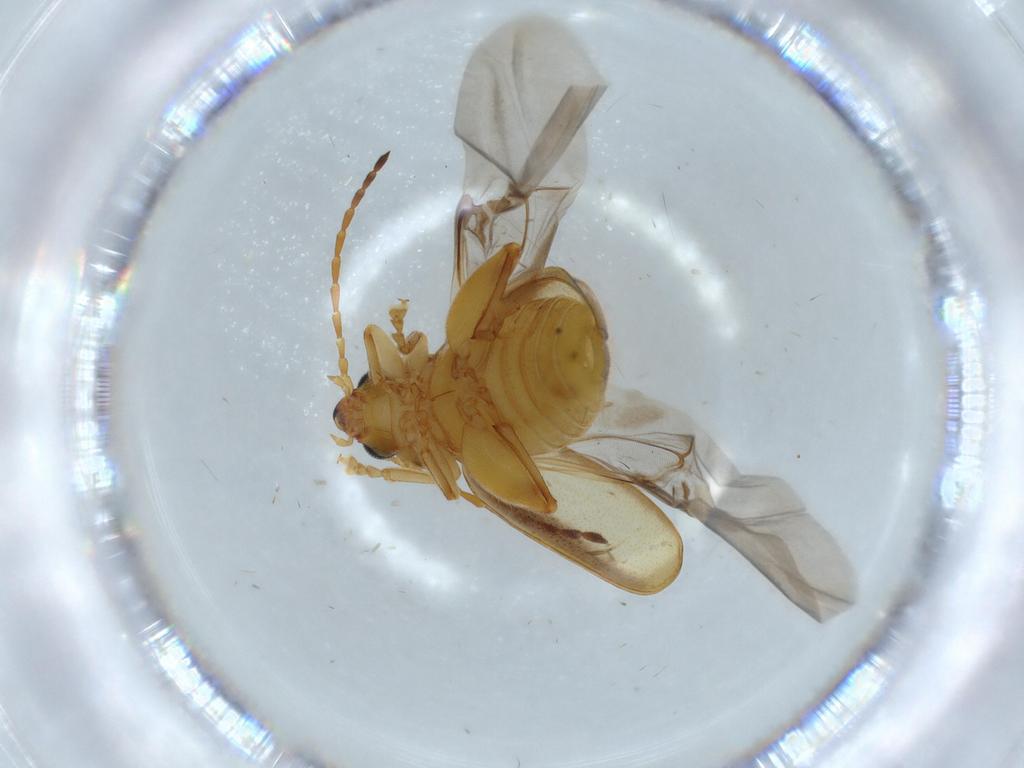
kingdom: Animalia
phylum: Arthropoda
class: Insecta
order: Coleoptera
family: Chrysomelidae
